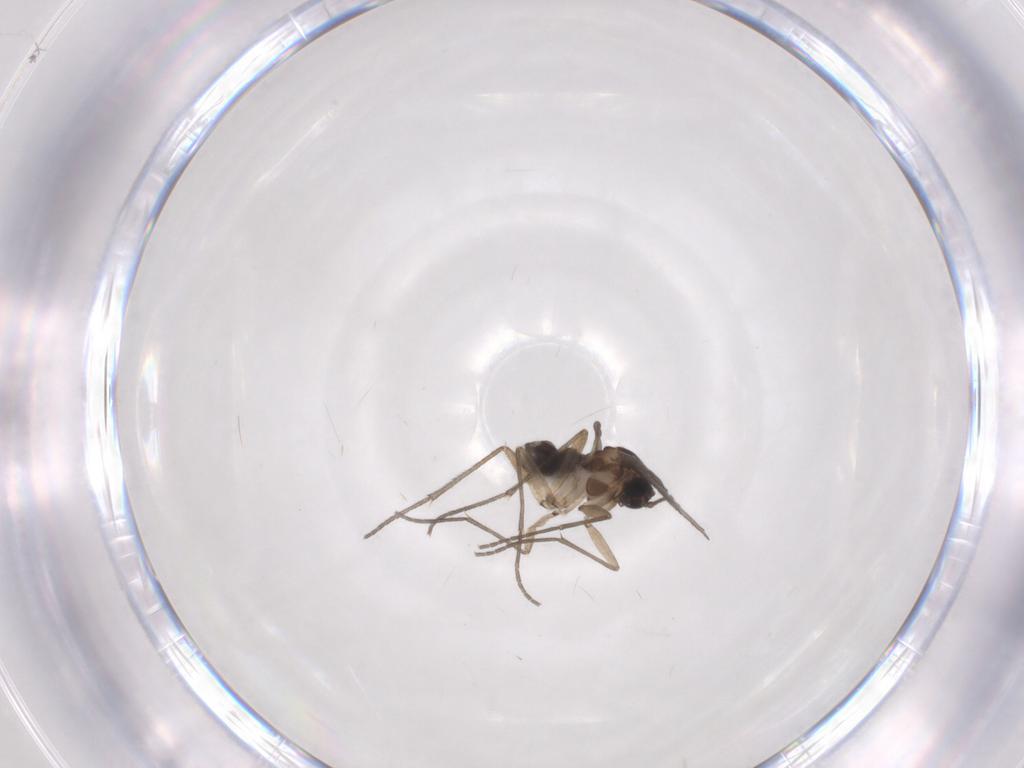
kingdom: Animalia
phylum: Arthropoda
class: Insecta
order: Diptera
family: Sciaridae
